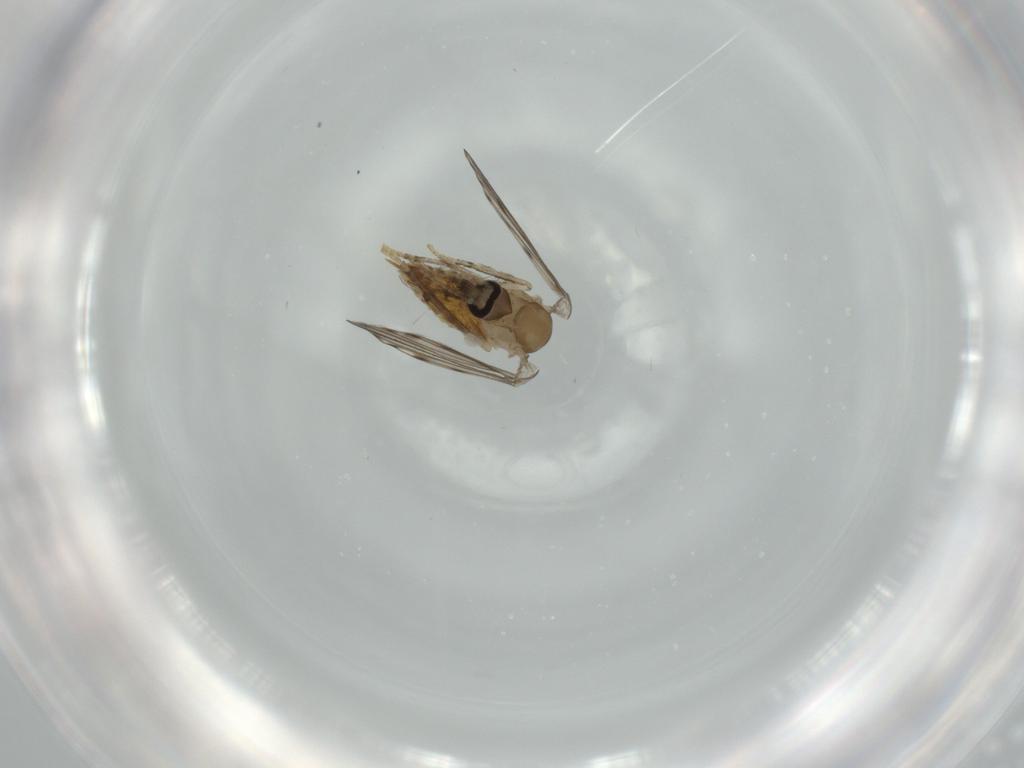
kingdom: Animalia
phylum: Arthropoda
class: Insecta
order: Diptera
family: Psychodidae
